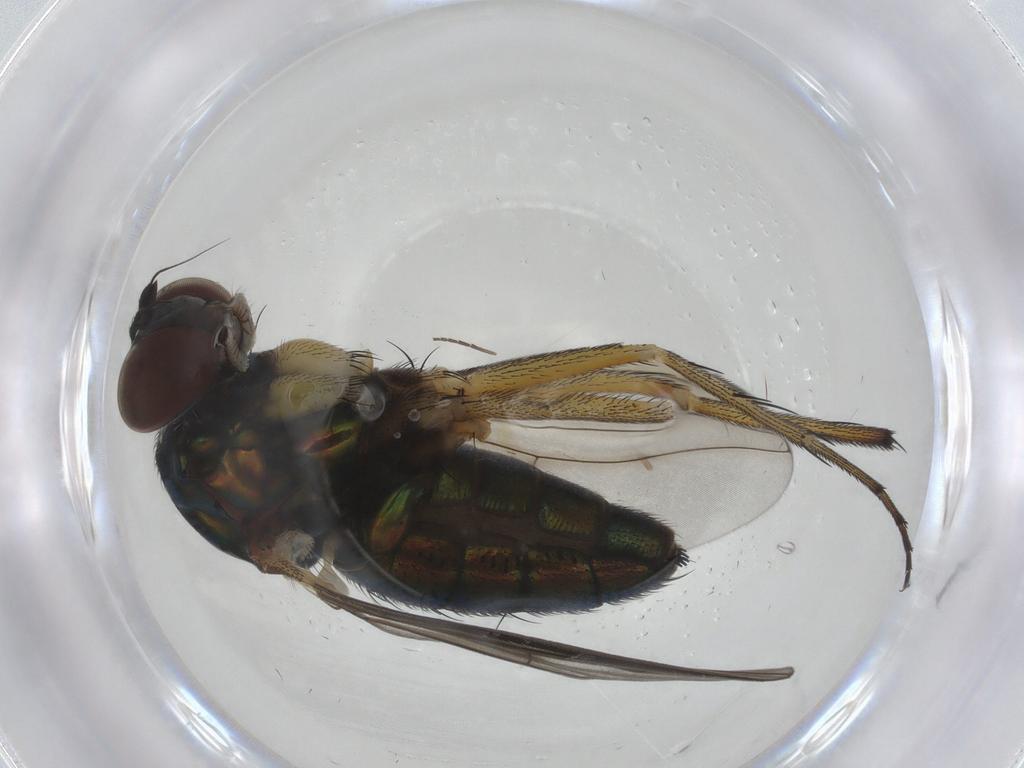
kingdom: Animalia
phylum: Arthropoda
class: Insecta
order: Diptera
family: Dolichopodidae
